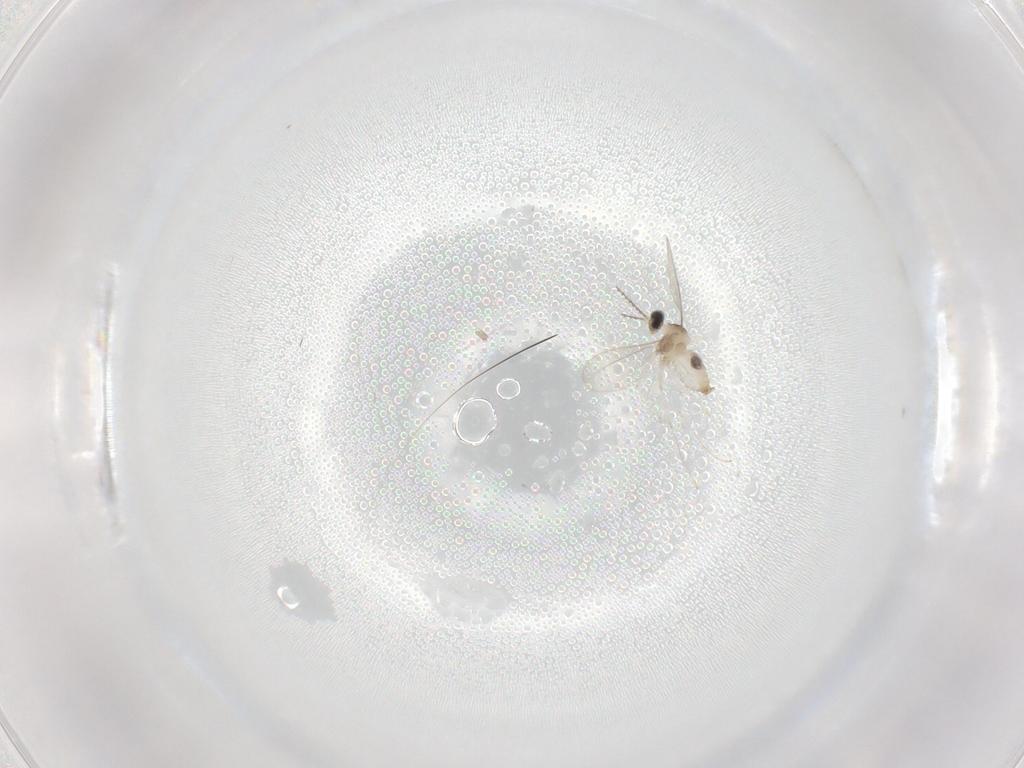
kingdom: Animalia
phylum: Arthropoda
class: Insecta
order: Diptera
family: Cecidomyiidae
